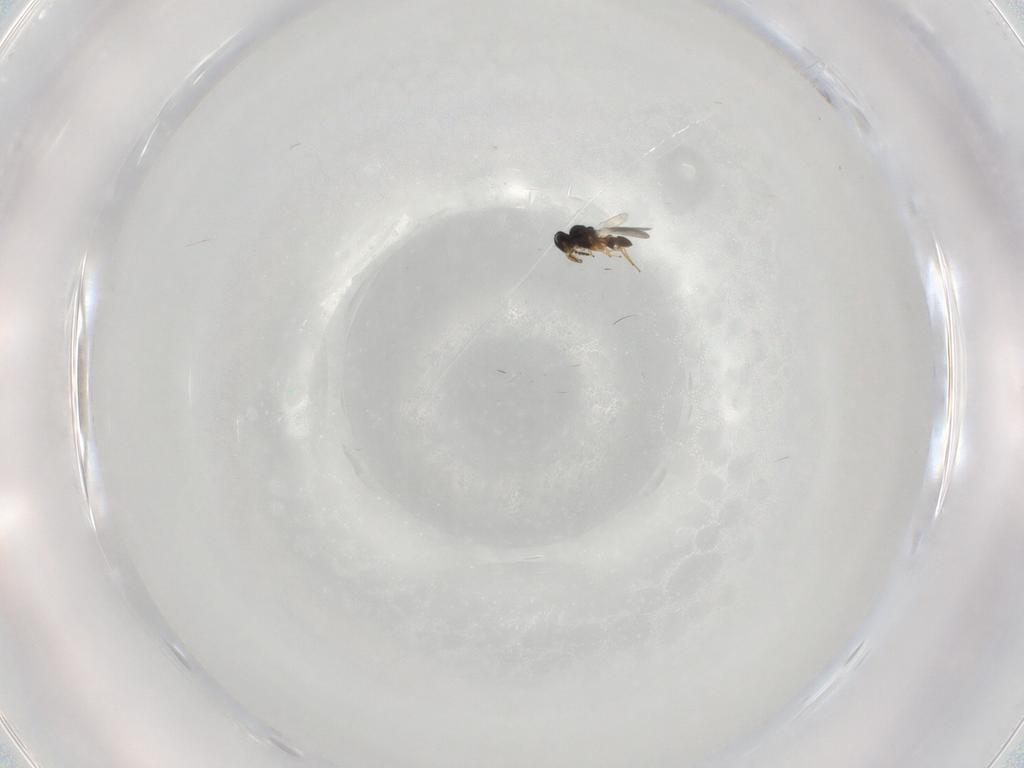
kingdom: Animalia
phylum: Arthropoda
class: Insecta
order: Hymenoptera
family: Platygastridae
